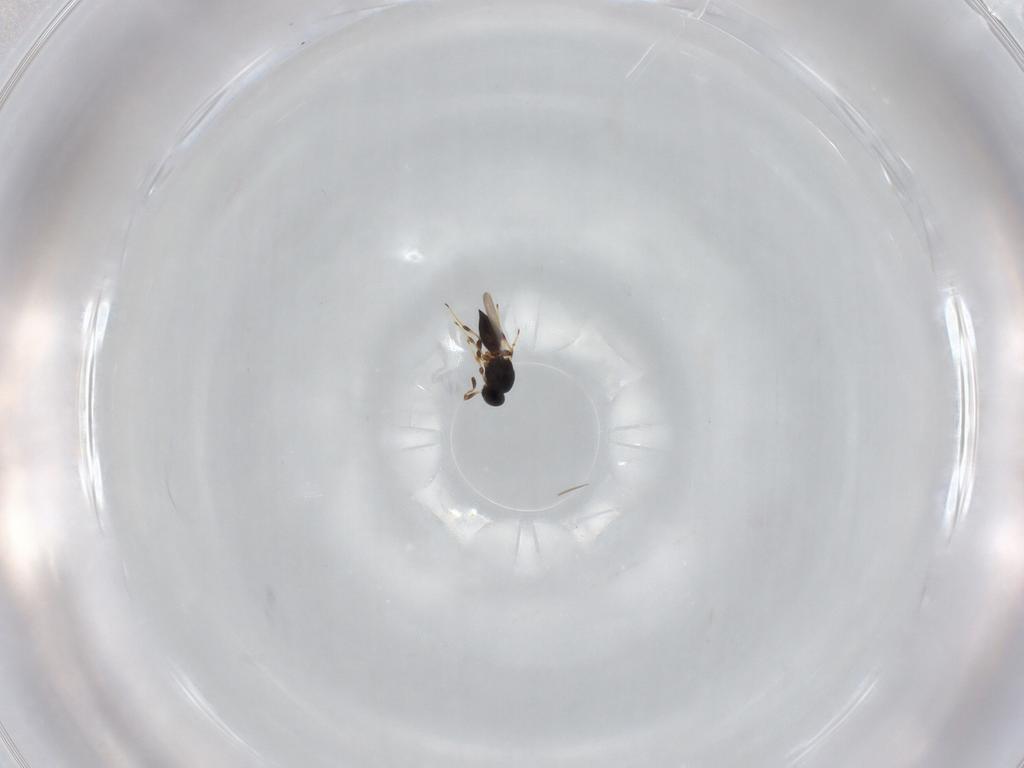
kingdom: Animalia
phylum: Arthropoda
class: Insecta
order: Hymenoptera
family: Platygastridae
